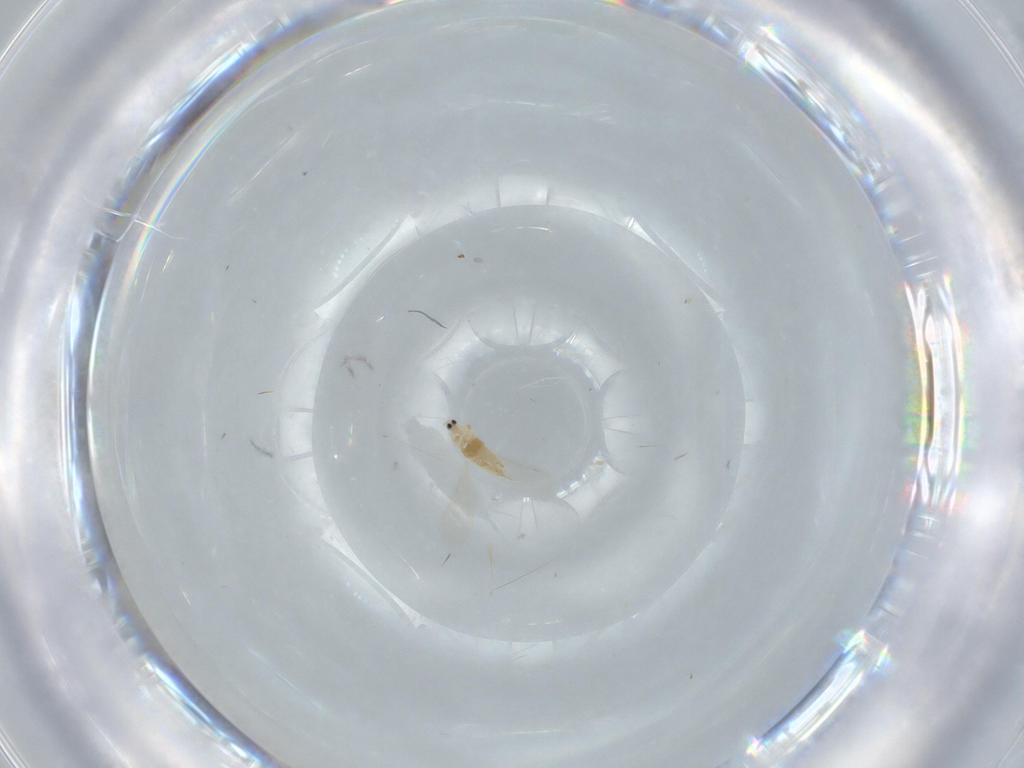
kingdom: Animalia
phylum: Arthropoda
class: Insecta
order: Hemiptera
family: Diaspididae
